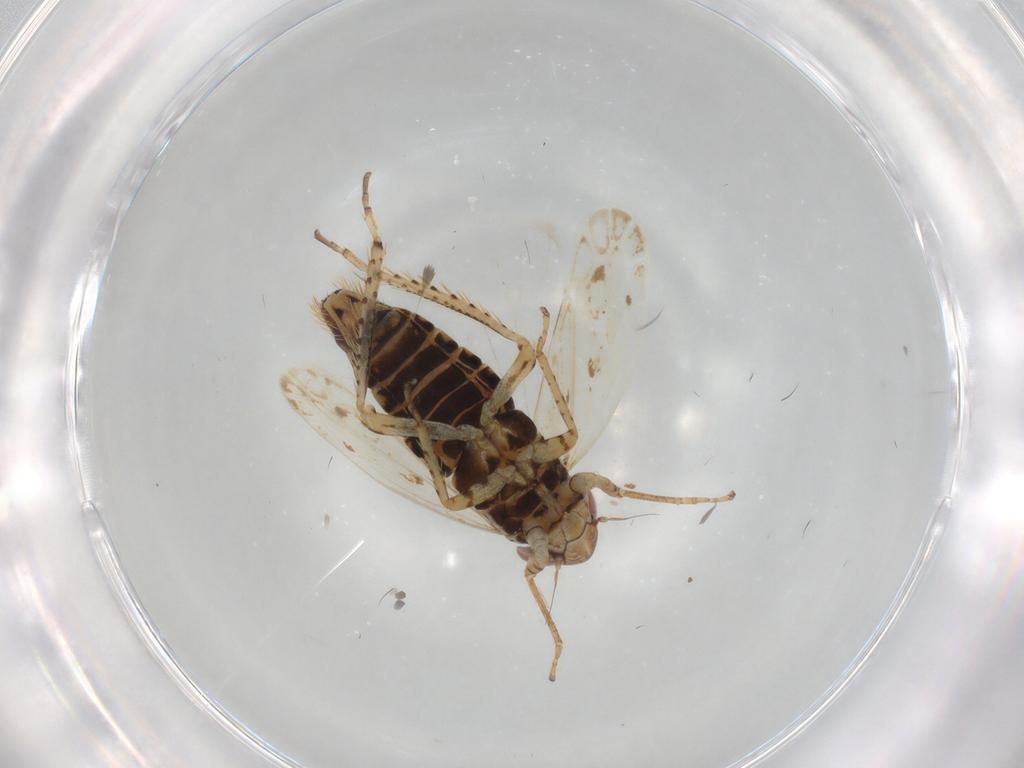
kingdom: Animalia
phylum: Arthropoda
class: Insecta
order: Hemiptera
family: Cicadellidae
